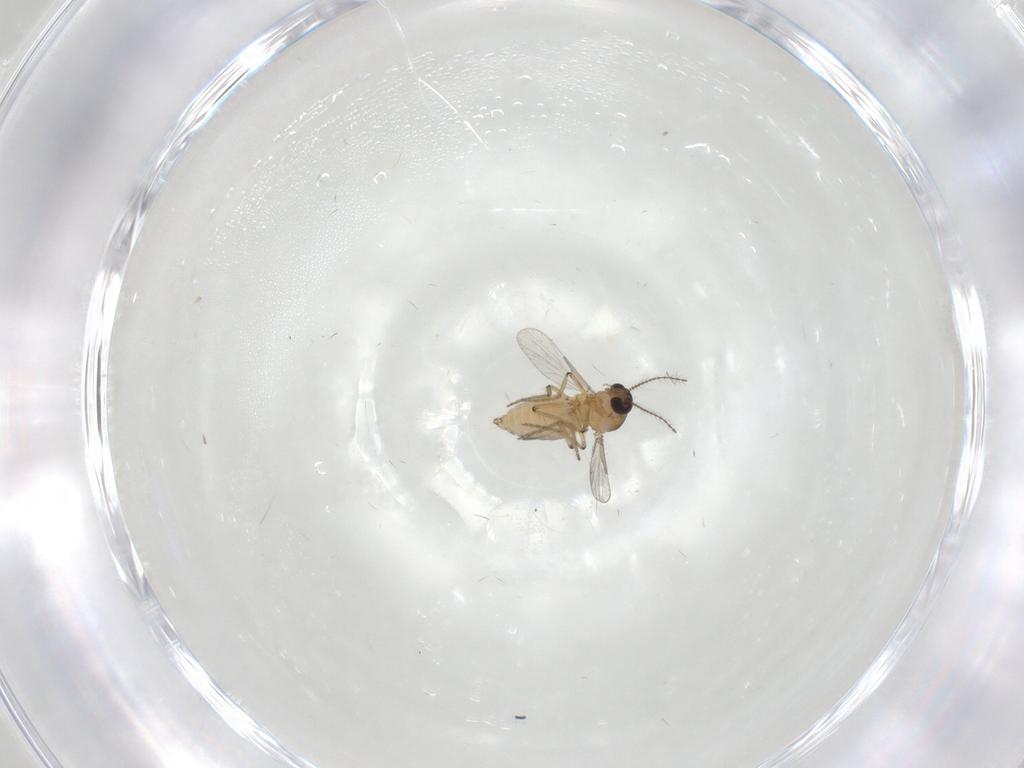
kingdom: Animalia
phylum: Arthropoda
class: Insecta
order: Diptera
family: Ceratopogonidae
